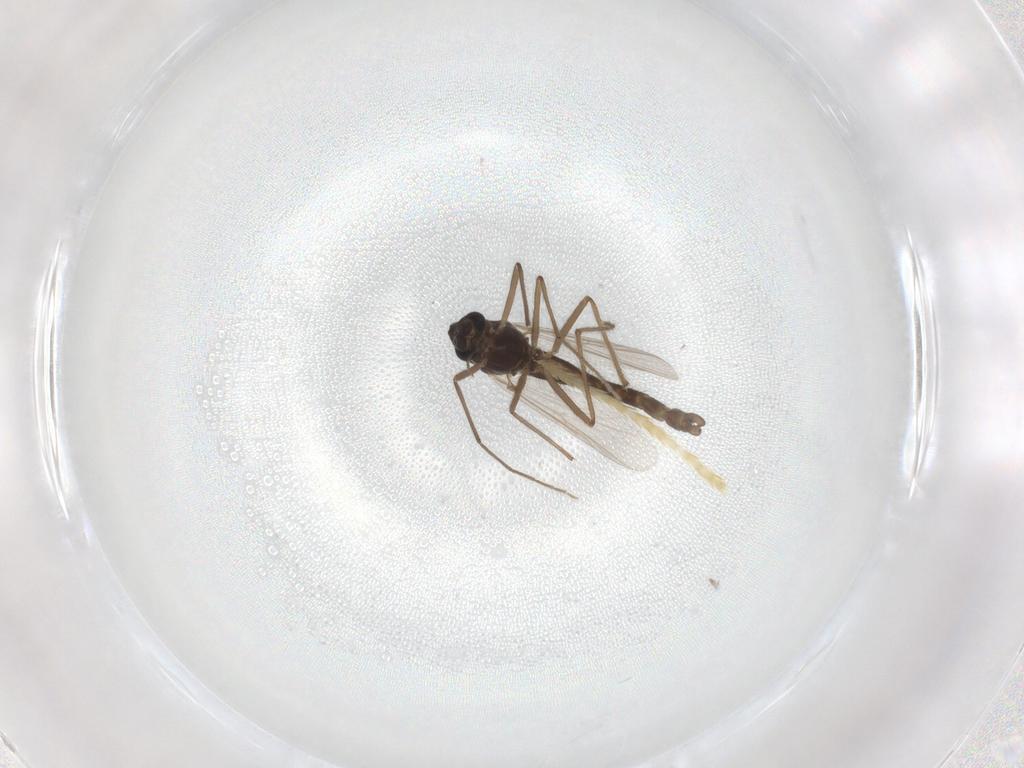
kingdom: Animalia
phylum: Arthropoda
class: Insecta
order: Diptera
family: Chironomidae
